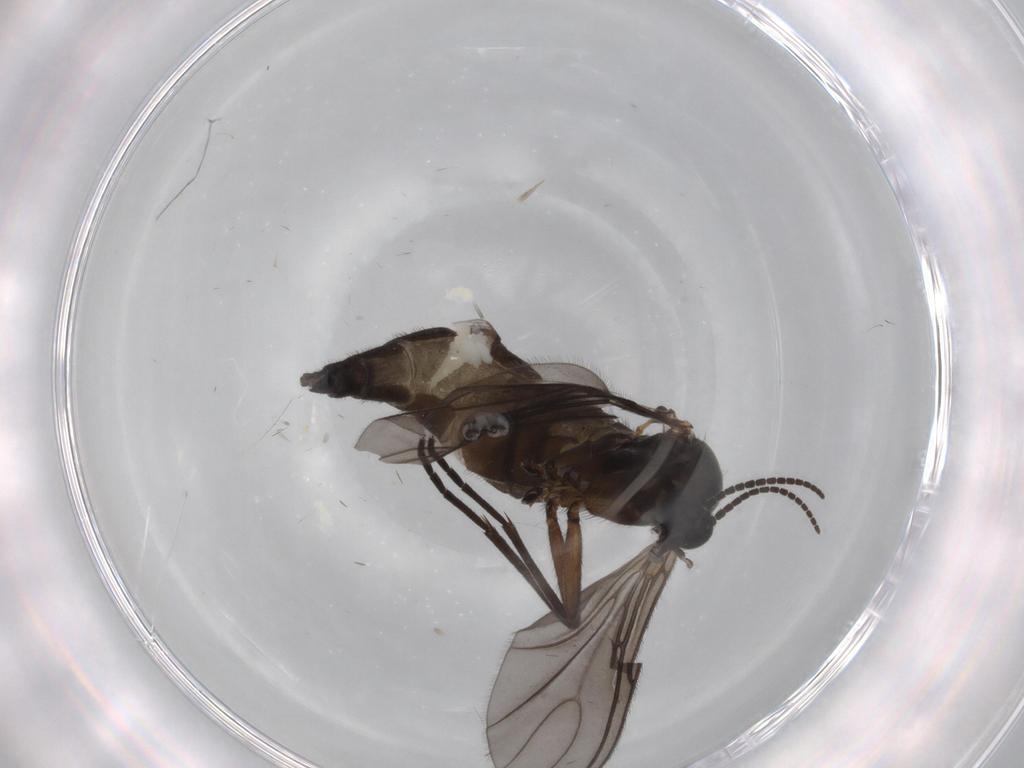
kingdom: Animalia
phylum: Arthropoda
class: Insecta
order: Diptera
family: Sciaridae
